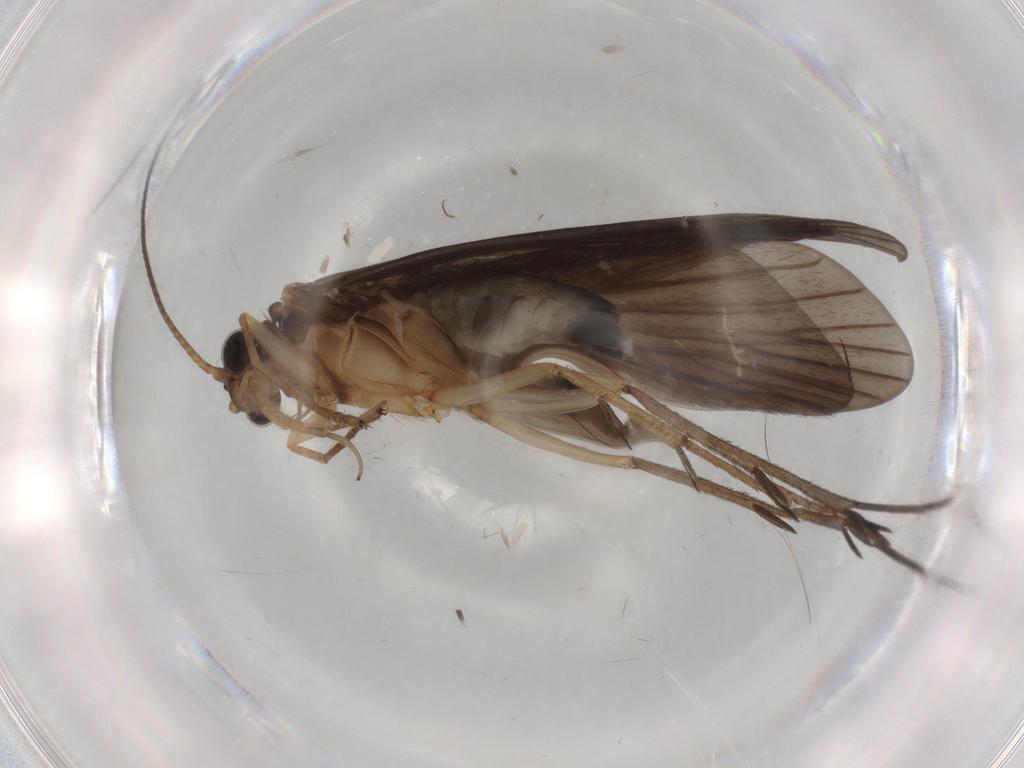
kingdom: Animalia
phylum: Arthropoda
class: Insecta
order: Trichoptera
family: Philopotamidae
